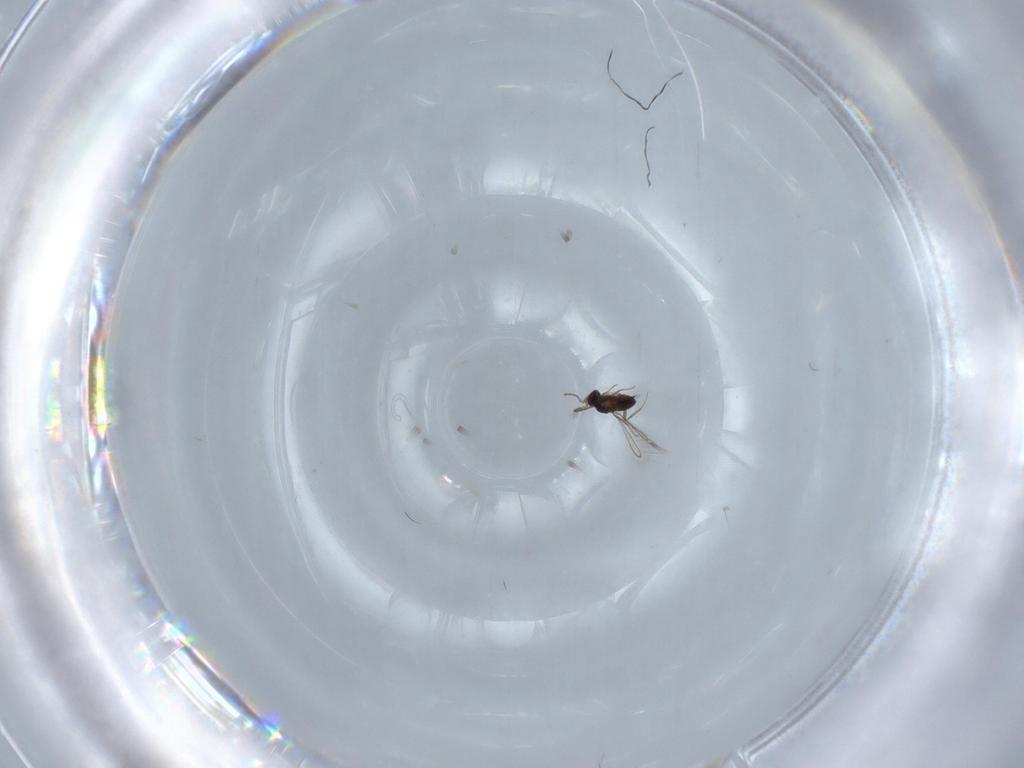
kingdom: Animalia
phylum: Arthropoda
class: Insecta
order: Hymenoptera
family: Mymaridae
